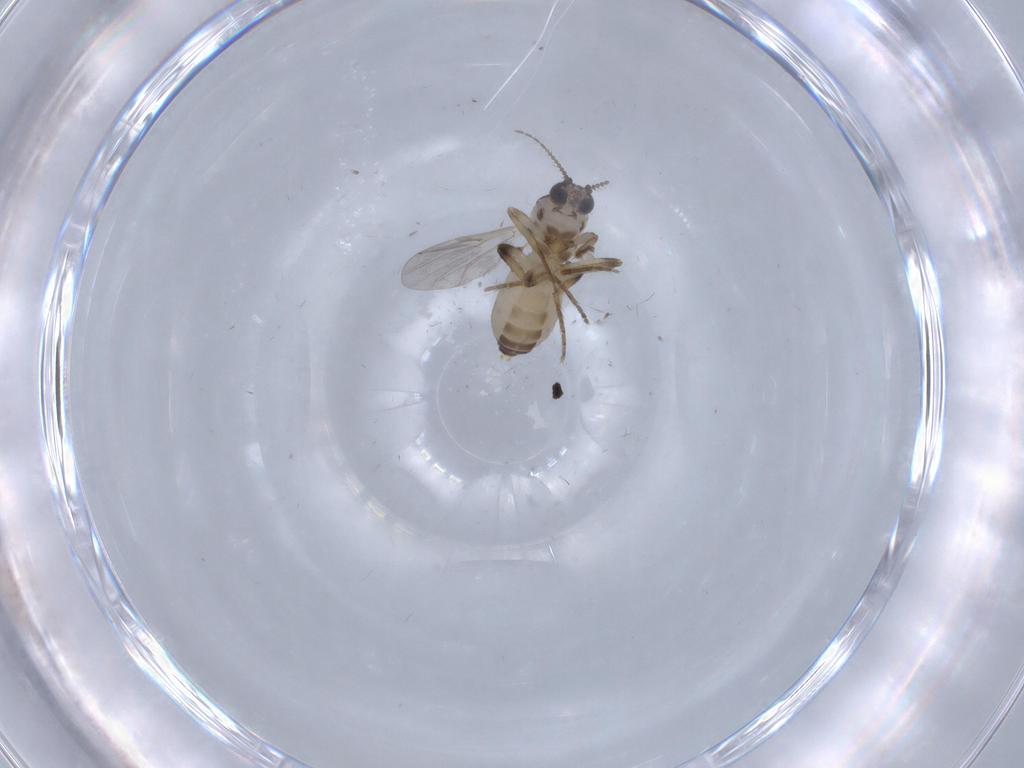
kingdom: Animalia
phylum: Arthropoda
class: Insecta
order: Diptera
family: Ceratopogonidae
